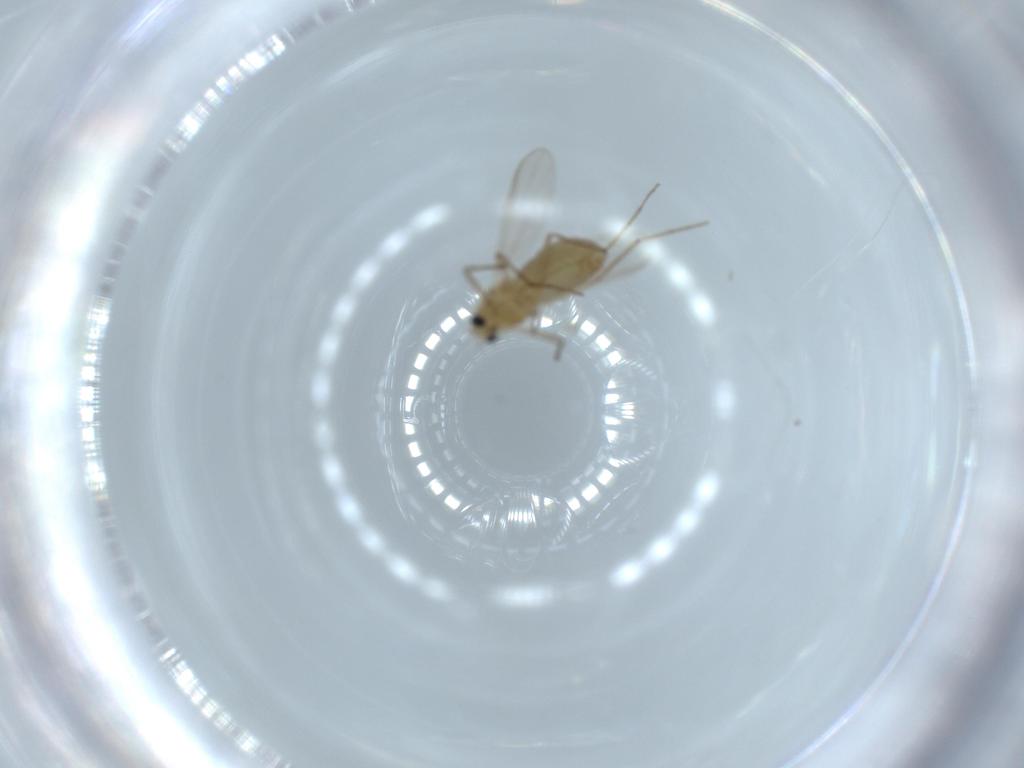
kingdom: Animalia
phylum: Arthropoda
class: Insecta
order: Diptera
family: Chironomidae
